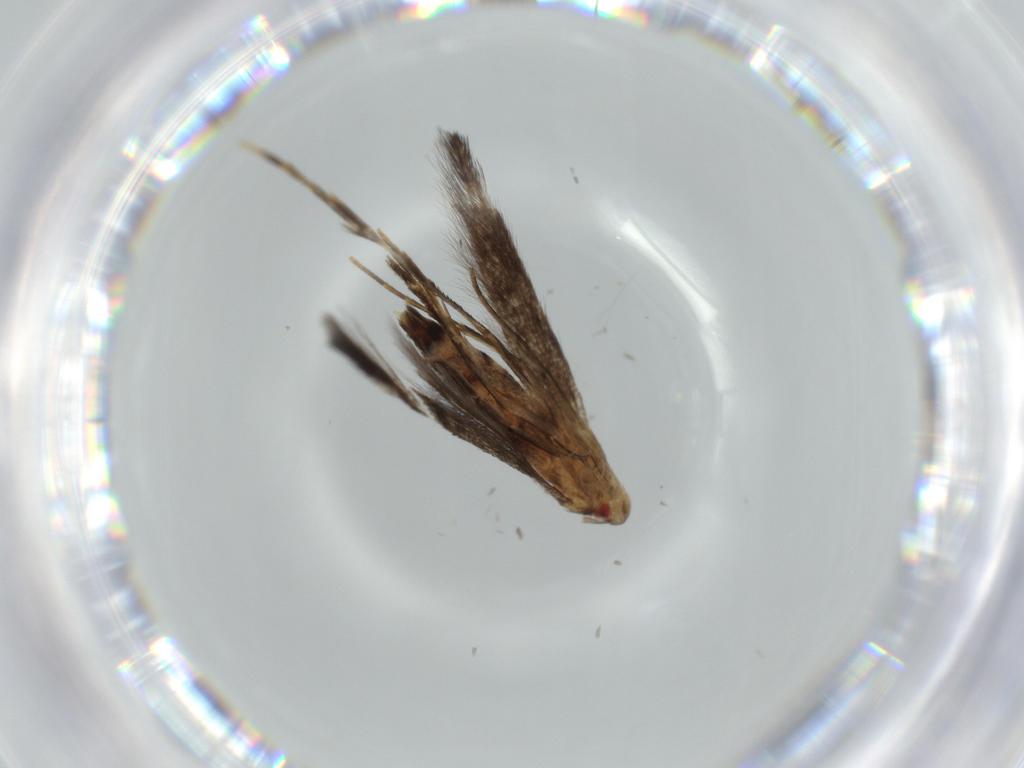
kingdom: Animalia
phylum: Arthropoda
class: Insecta
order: Lepidoptera
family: Cosmopterigidae
